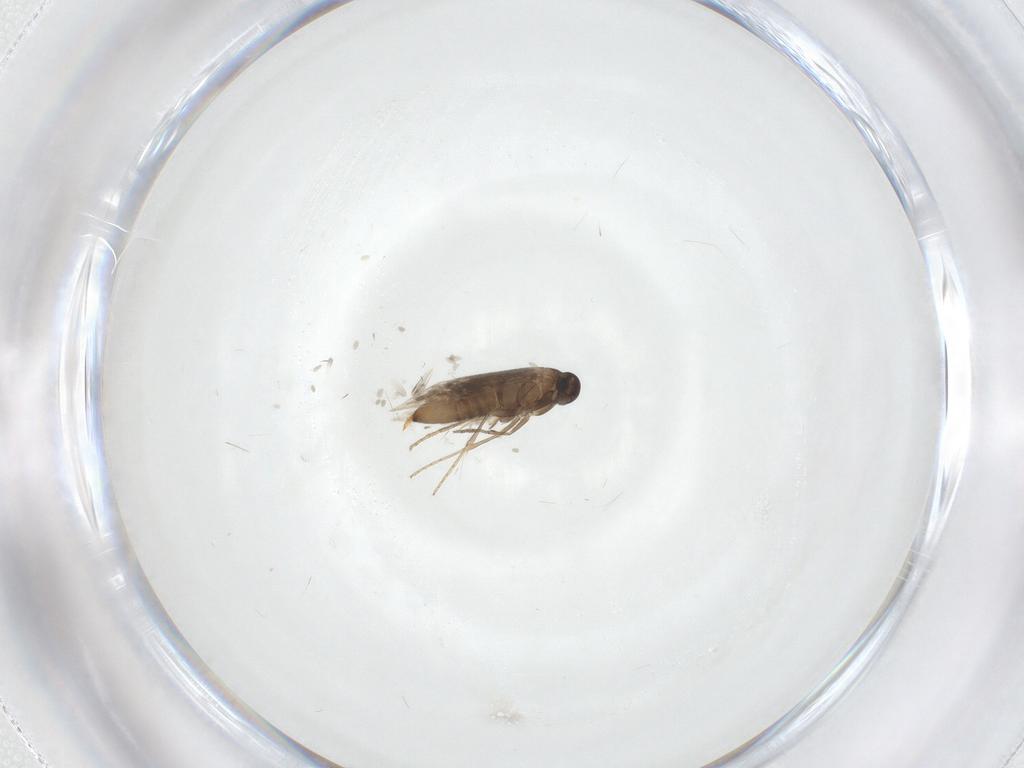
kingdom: Animalia
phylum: Arthropoda
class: Insecta
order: Lepidoptera
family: Heliozelidae
